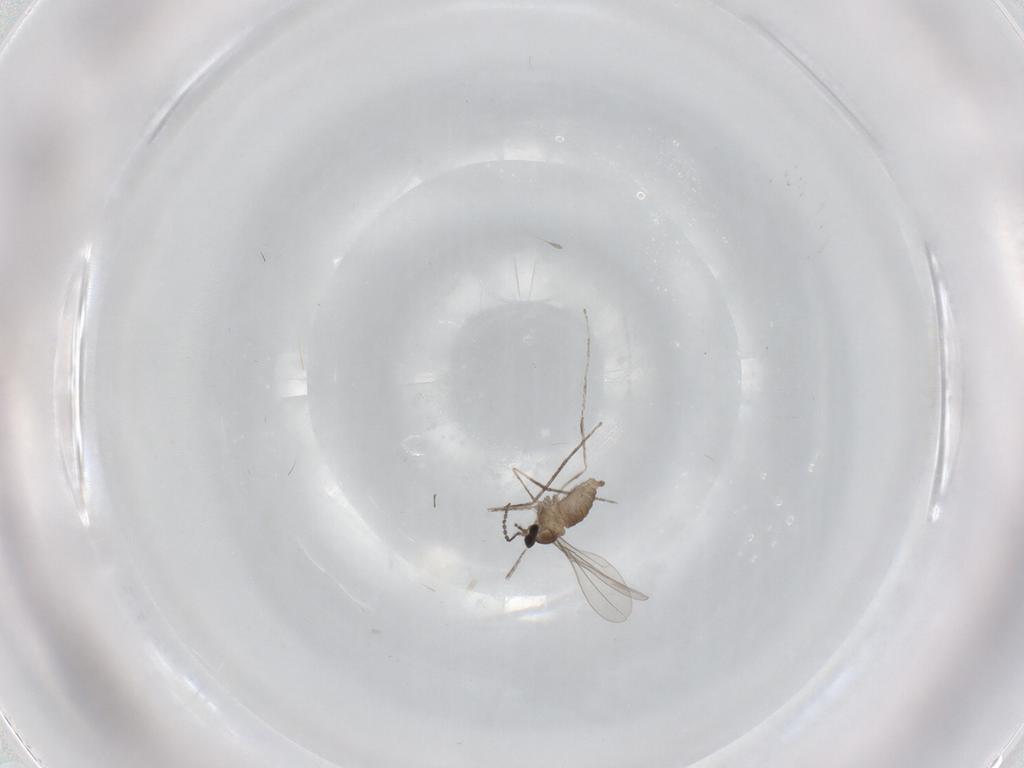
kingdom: Animalia
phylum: Arthropoda
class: Insecta
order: Diptera
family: Cecidomyiidae
